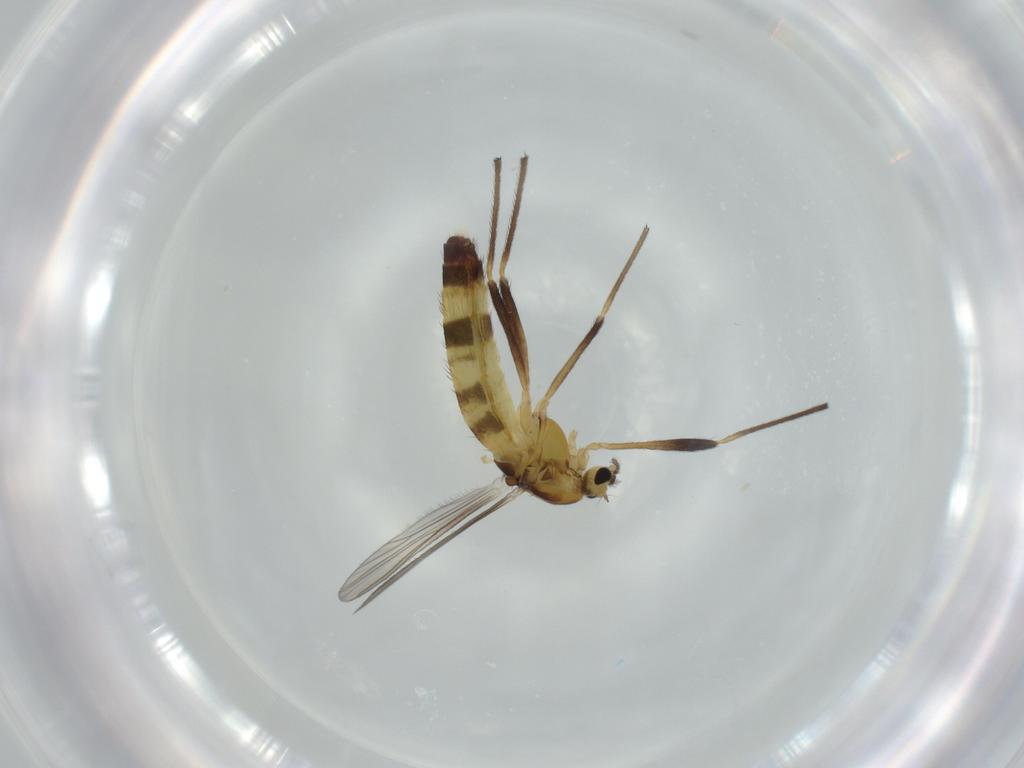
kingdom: Animalia
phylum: Arthropoda
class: Insecta
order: Diptera
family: Chironomidae
